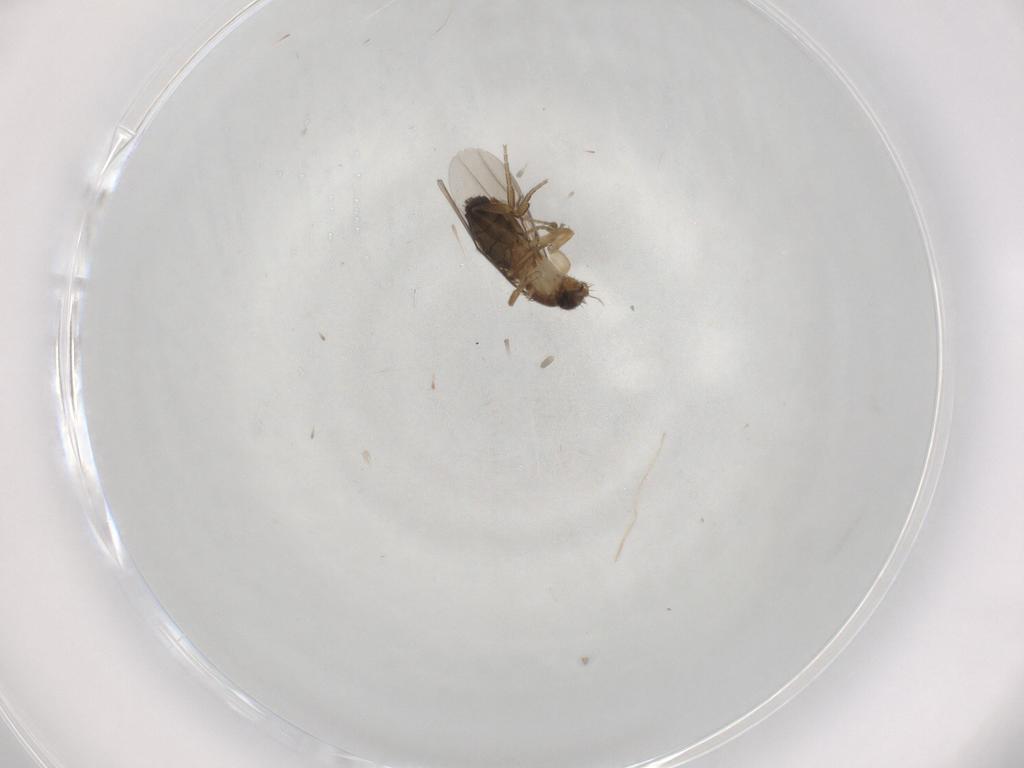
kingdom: Animalia
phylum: Arthropoda
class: Insecta
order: Diptera
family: Phoridae
